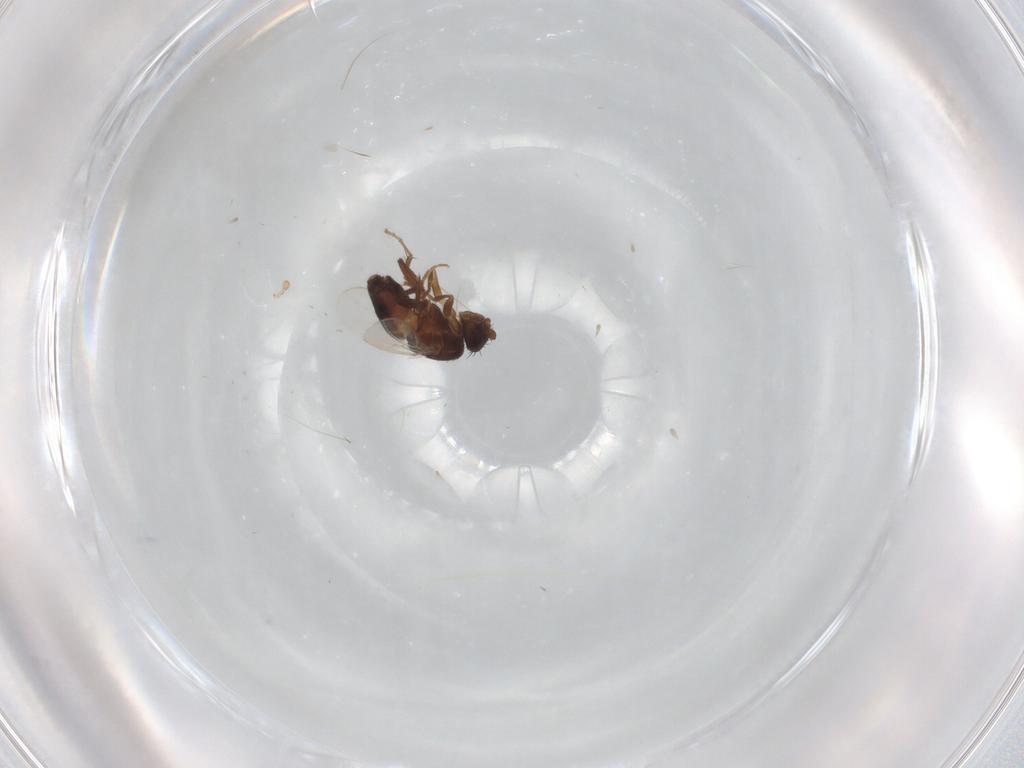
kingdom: Animalia
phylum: Arthropoda
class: Insecta
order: Diptera
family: Sphaeroceridae
